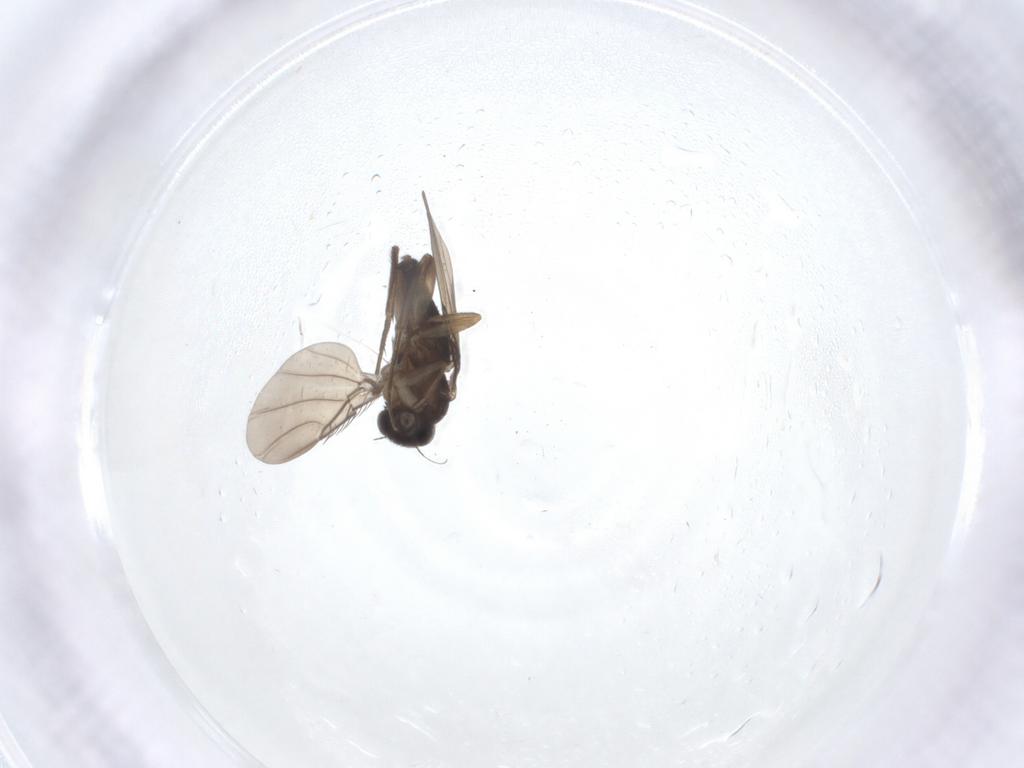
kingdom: Animalia
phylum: Arthropoda
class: Insecta
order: Diptera
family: Phoridae
